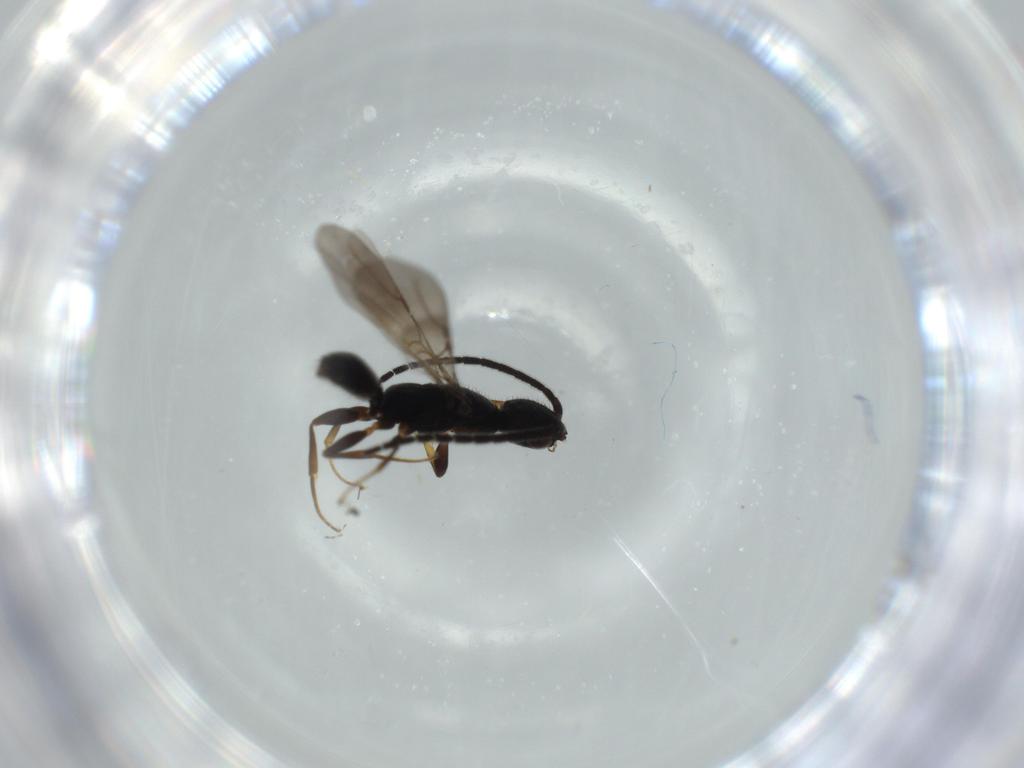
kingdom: Animalia
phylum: Arthropoda
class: Insecta
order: Hymenoptera
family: Bethylidae
